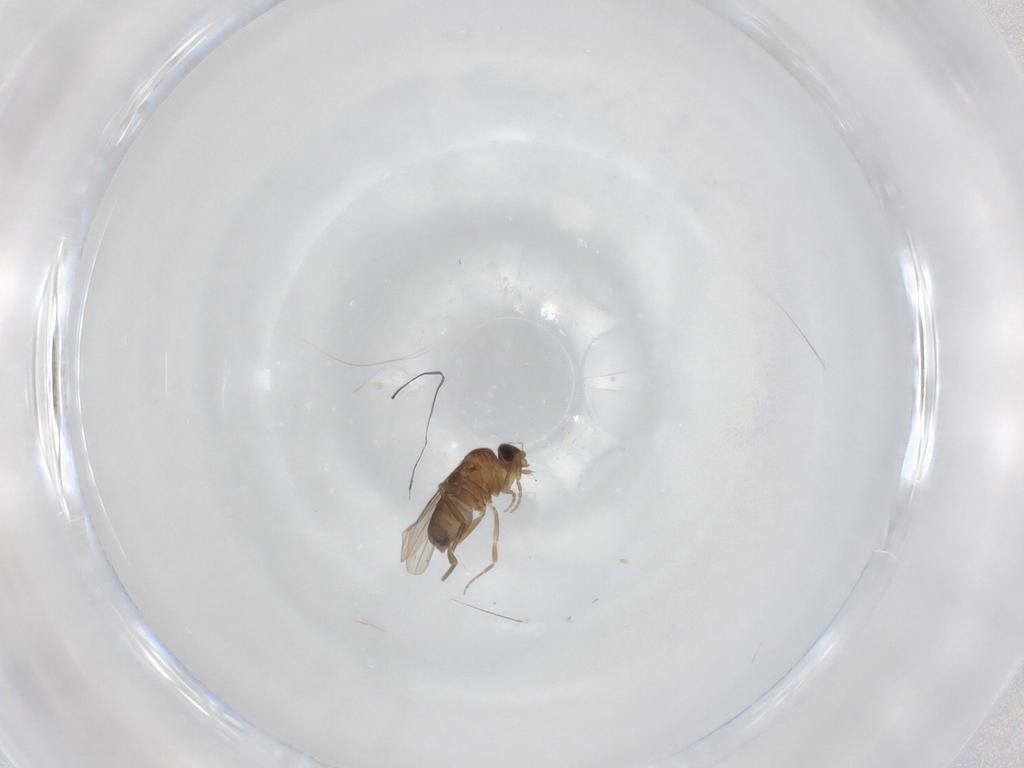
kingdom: Animalia
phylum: Arthropoda
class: Insecta
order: Diptera
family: Phoridae
